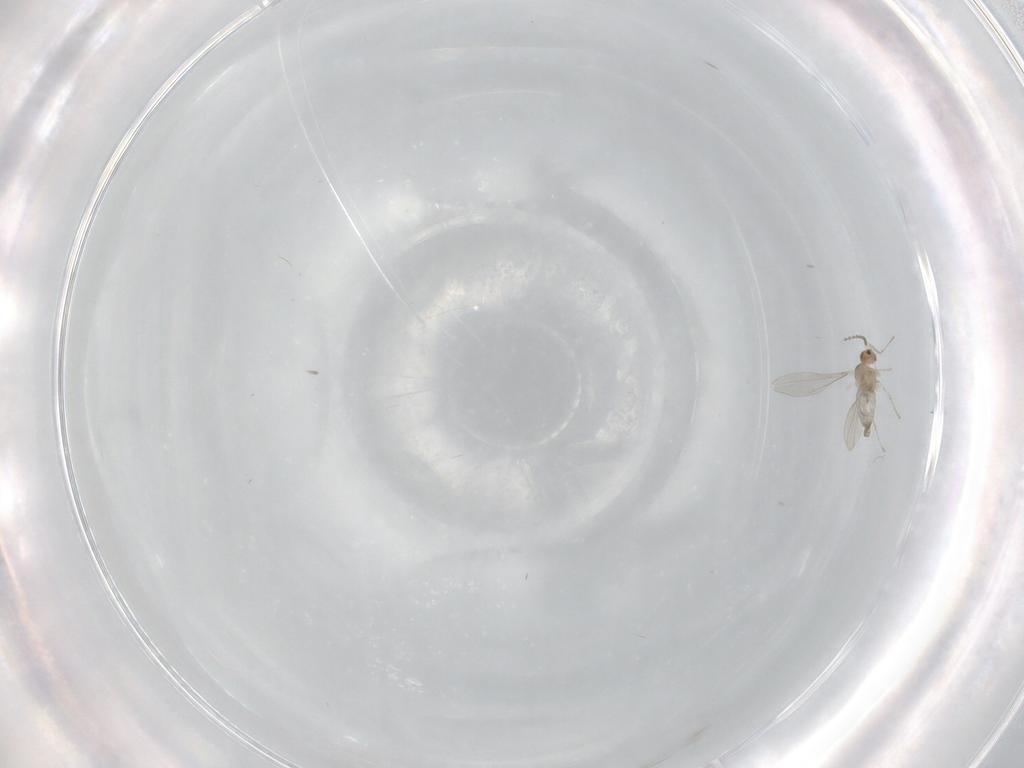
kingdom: Animalia
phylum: Arthropoda
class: Insecta
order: Diptera
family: Cecidomyiidae
